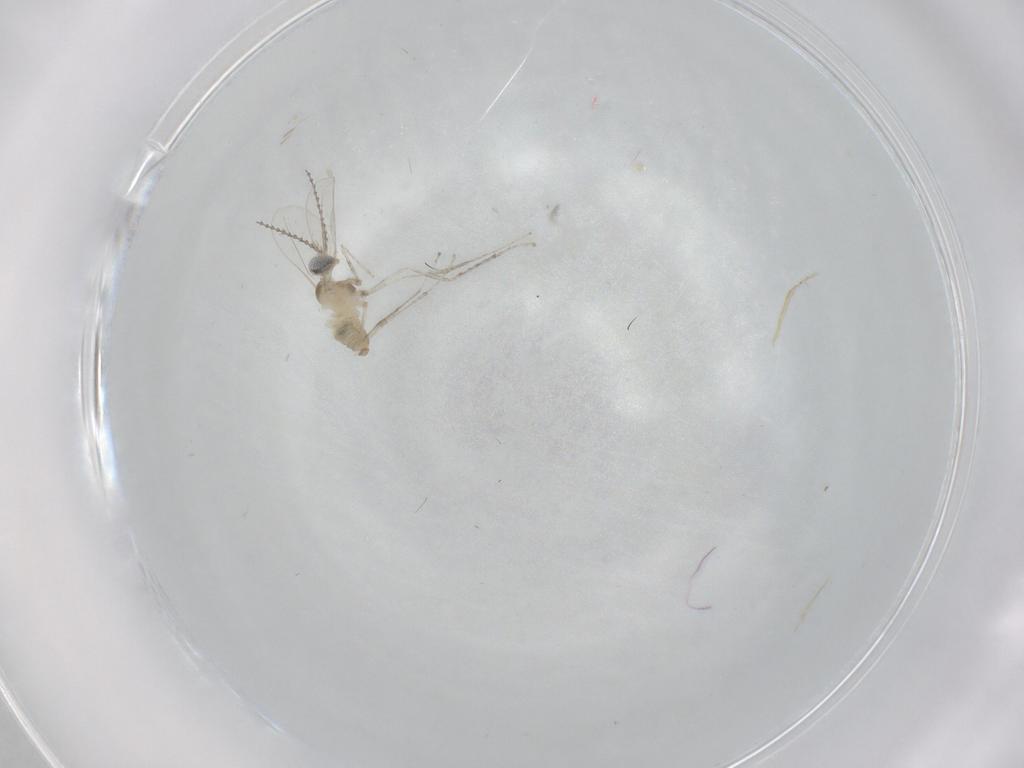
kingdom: Animalia
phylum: Arthropoda
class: Insecta
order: Diptera
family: Cecidomyiidae
